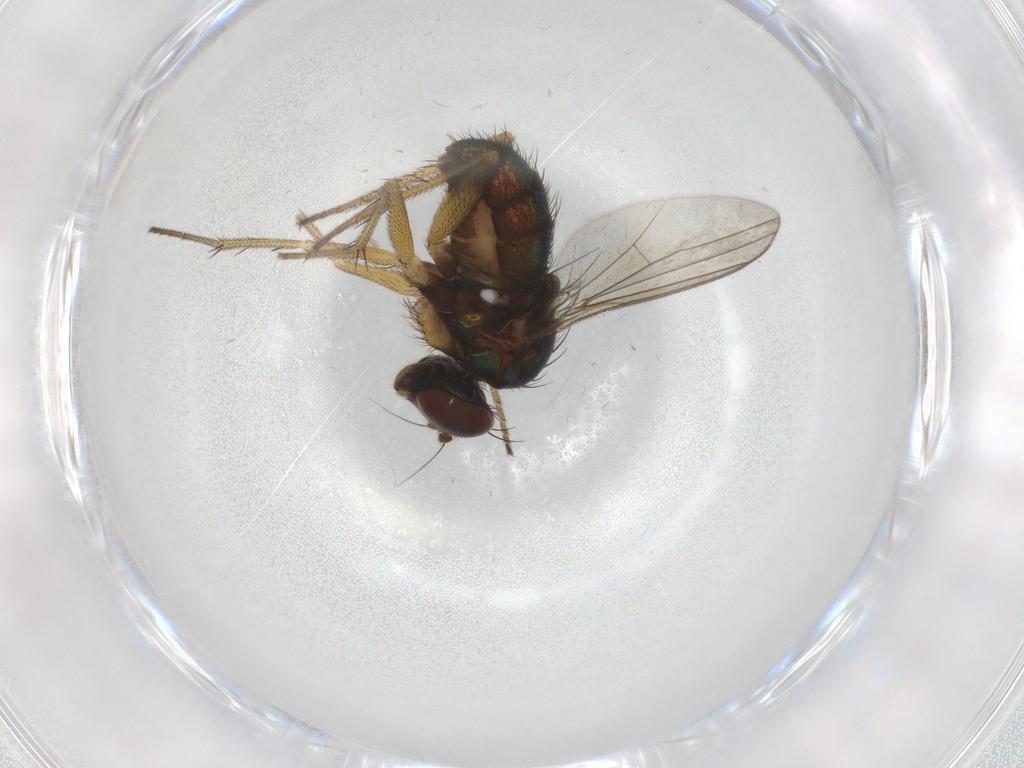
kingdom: Animalia
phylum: Arthropoda
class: Insecta
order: Diptera
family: Dolichopodidae
